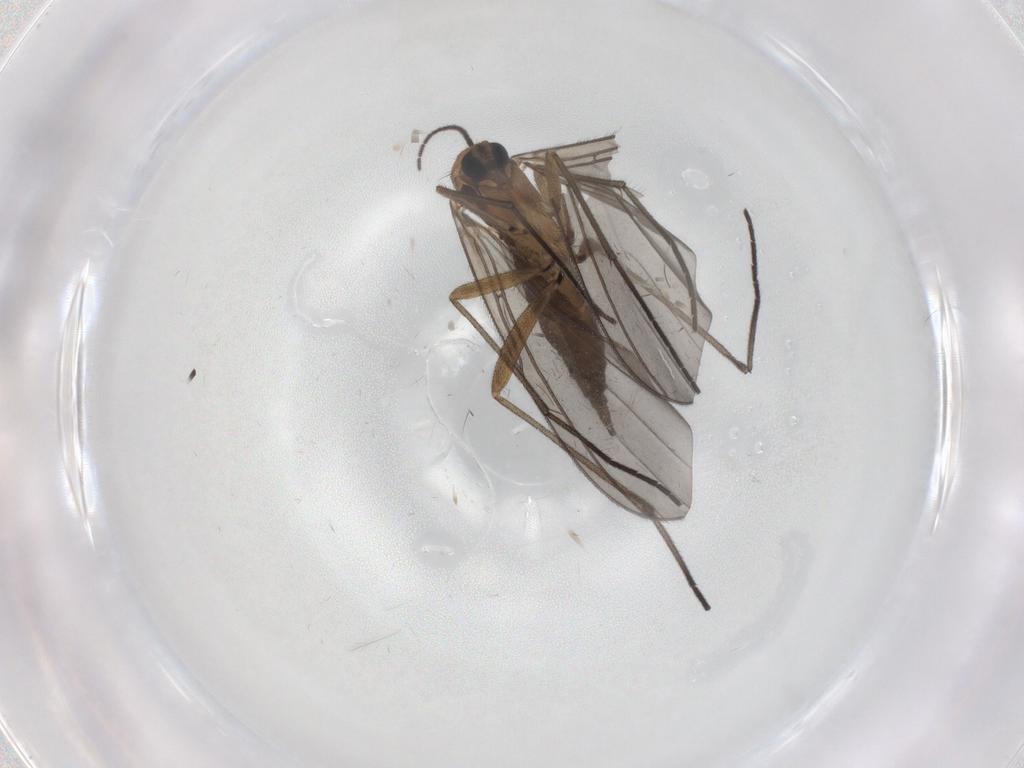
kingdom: Animalia
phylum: Arthropoda
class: Insecta
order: Diptera
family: Sciaridae
